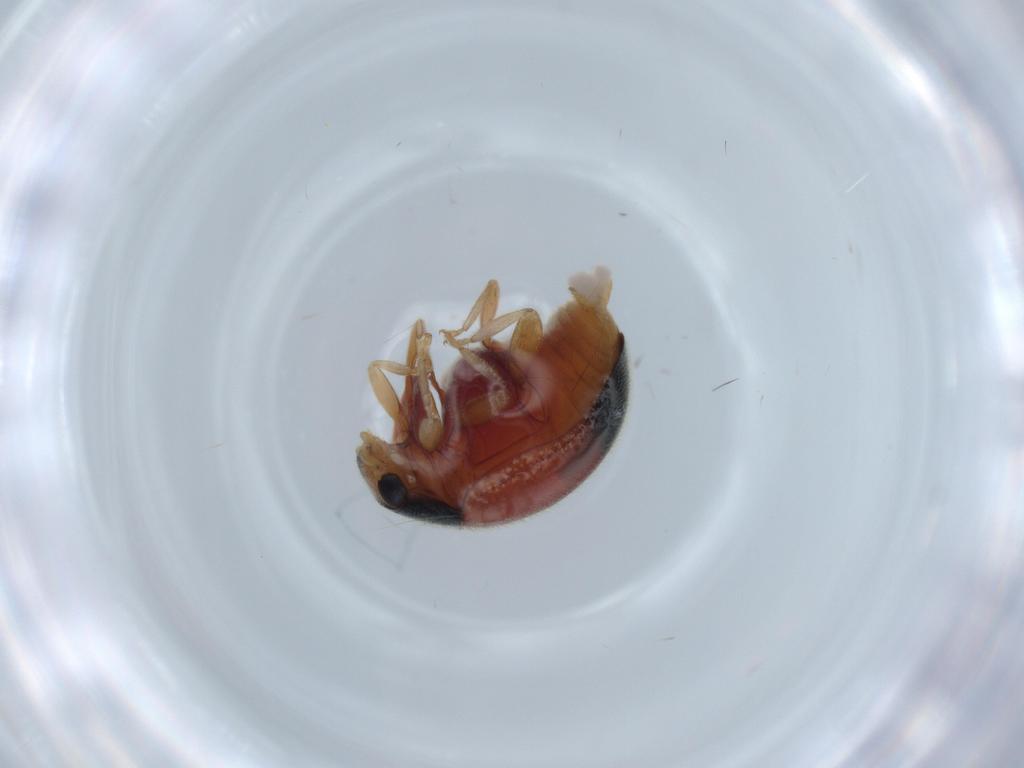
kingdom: Animalia
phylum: Arthropoda
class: Insecta
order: Coleoptera
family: Coccinellidae
